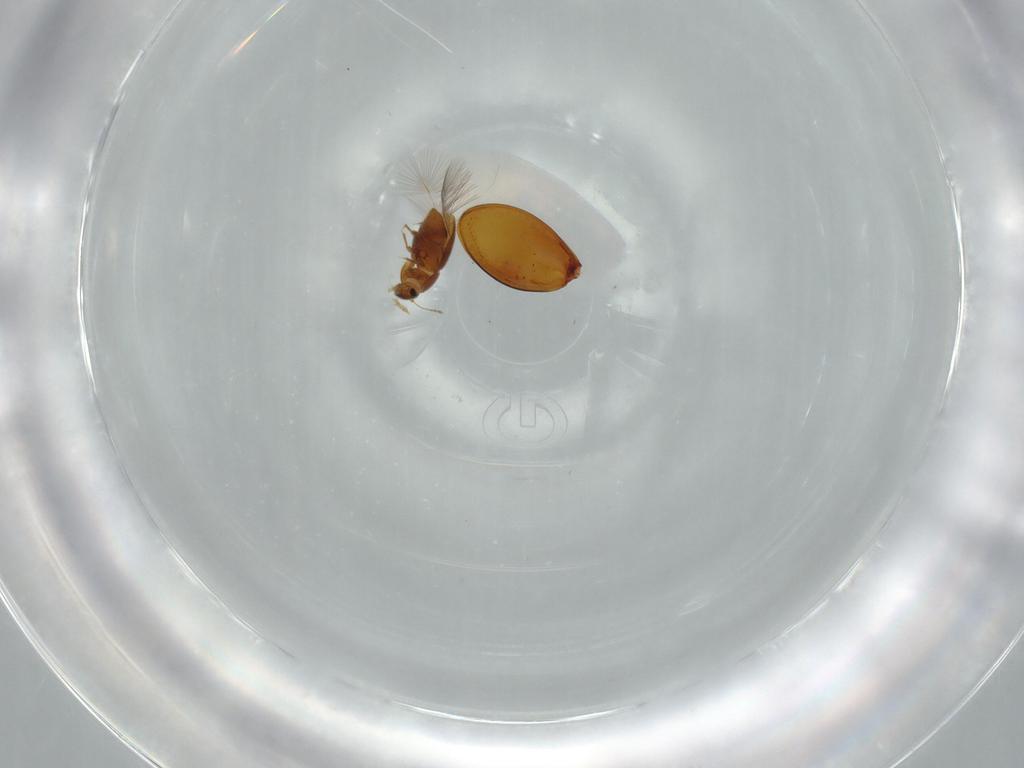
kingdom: Animalia
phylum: Arthropoda
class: Insecta
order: Coleoptera
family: Ptiliidae
